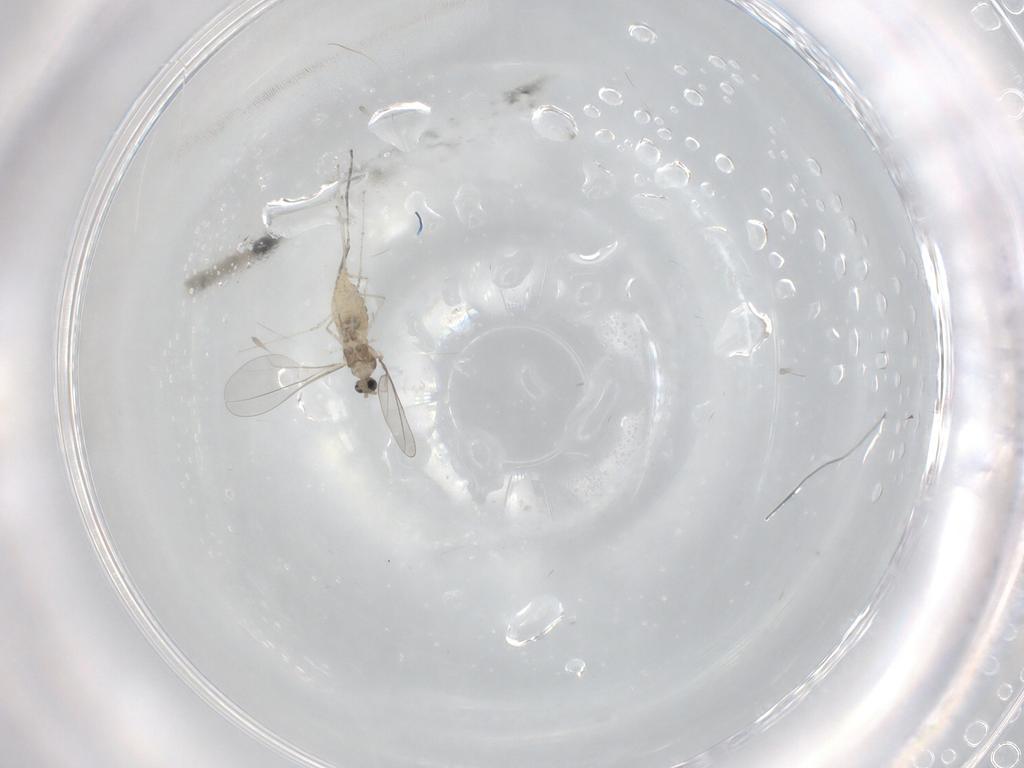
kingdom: Animalia
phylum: Arthropoda
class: Insecta
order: Diptera
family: Cecidomyiidae
